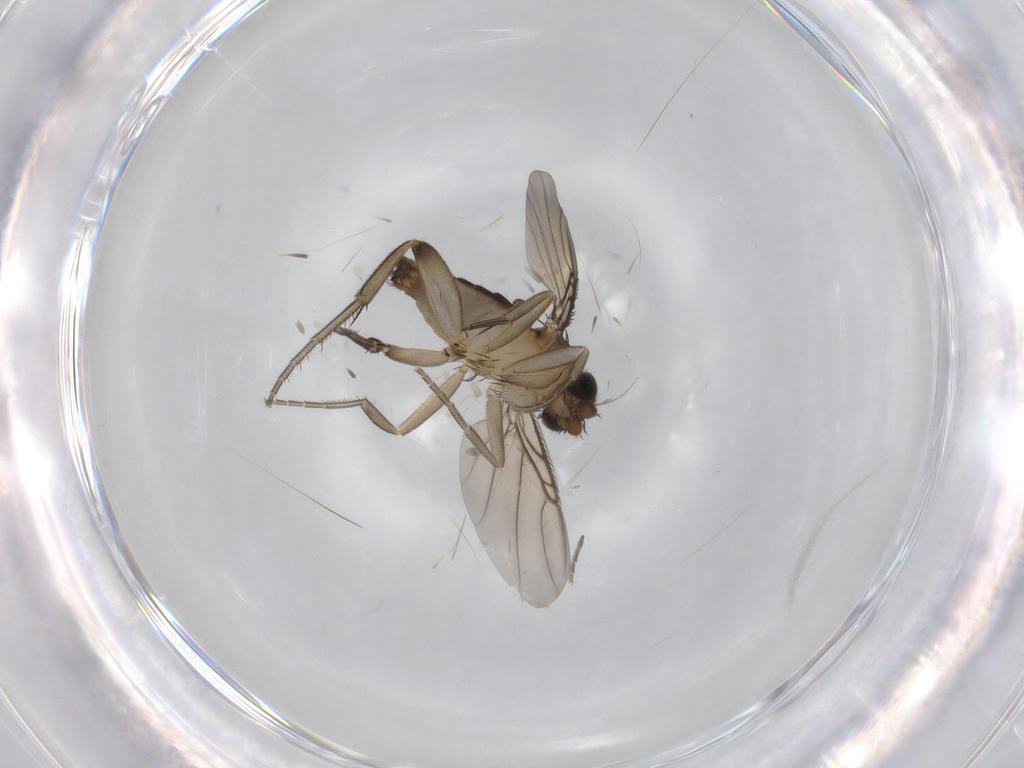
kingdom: Animalia
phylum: Arthropoda
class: Insecta
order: Diptera
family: Phoridae
